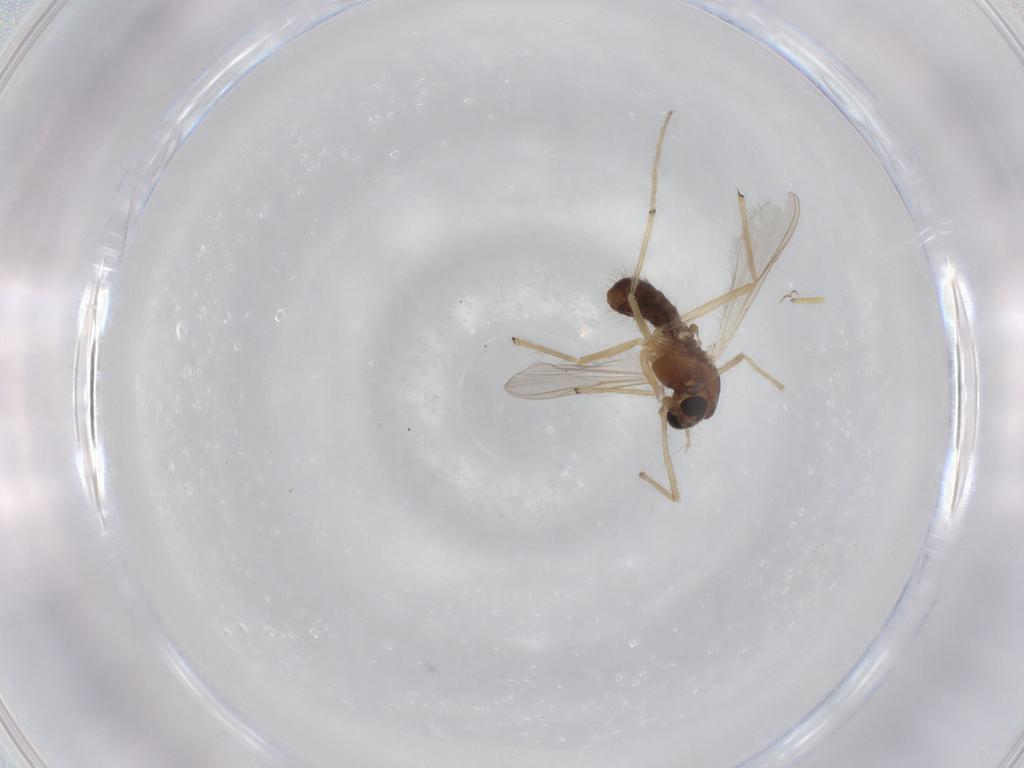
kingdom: Animalia
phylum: Arthropoda
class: Insecta
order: Diptera
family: Chironomidae
